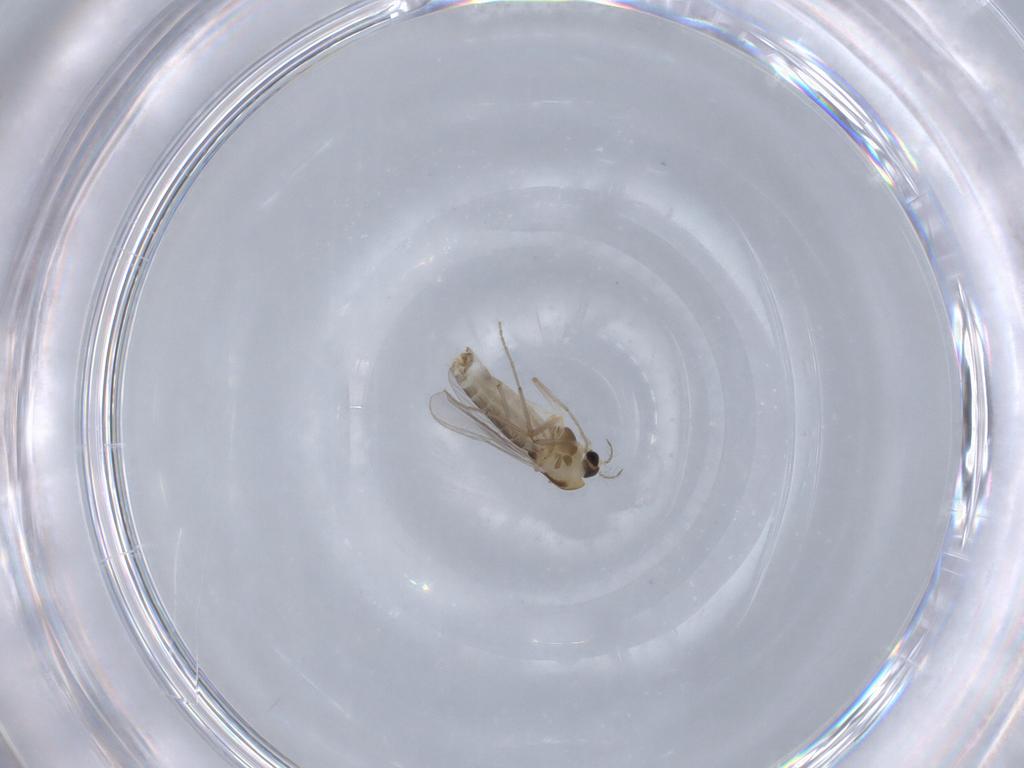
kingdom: Animalia
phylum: Arthropoda
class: Insecta
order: Diptera
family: Chironomidae
